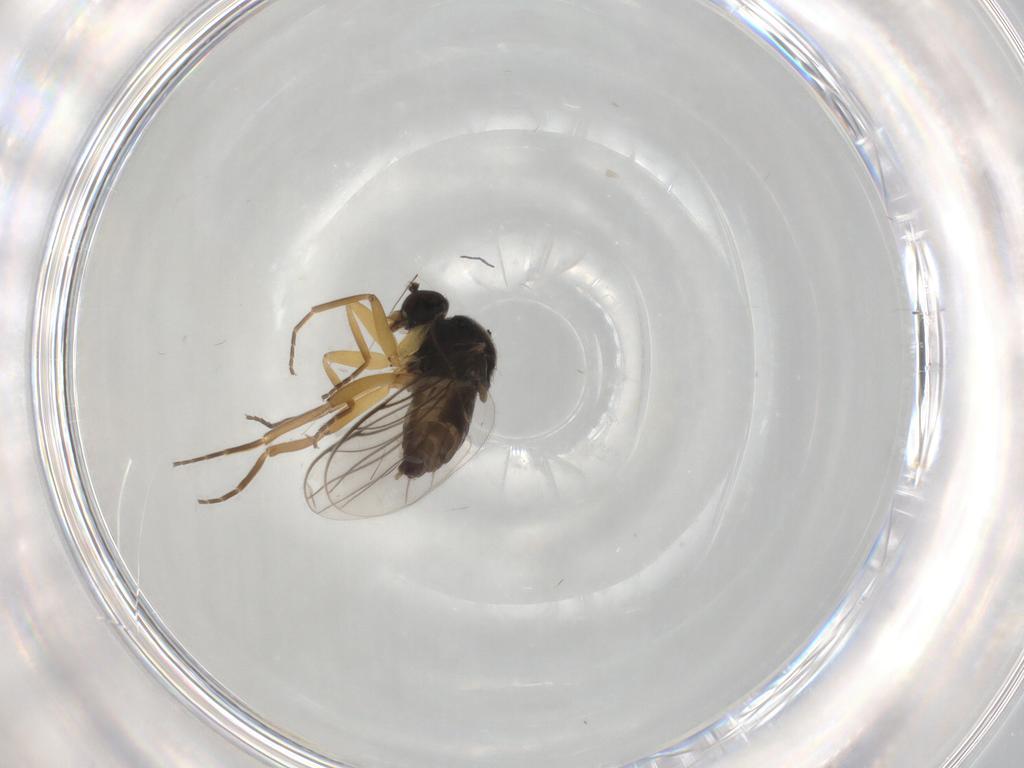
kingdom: Animalia
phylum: Arthropoda
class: Insecta
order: Diptera
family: Hybotidae
